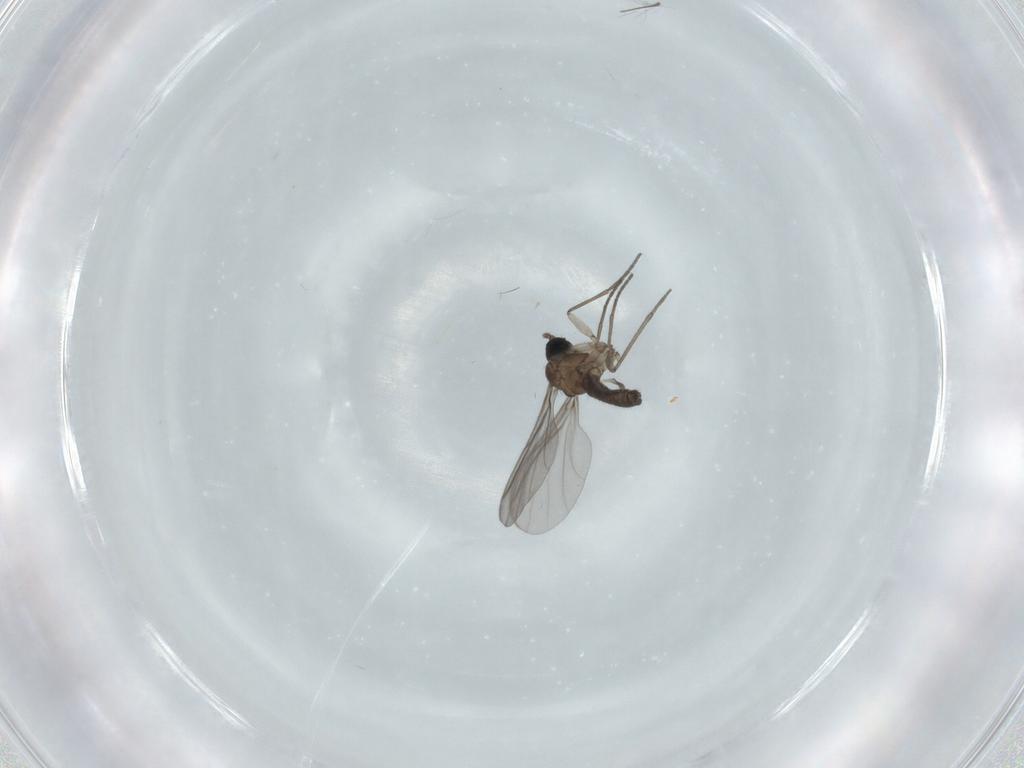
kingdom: Animalia
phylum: Arthropoda
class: Insecta
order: Diptera
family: Chironomidae
